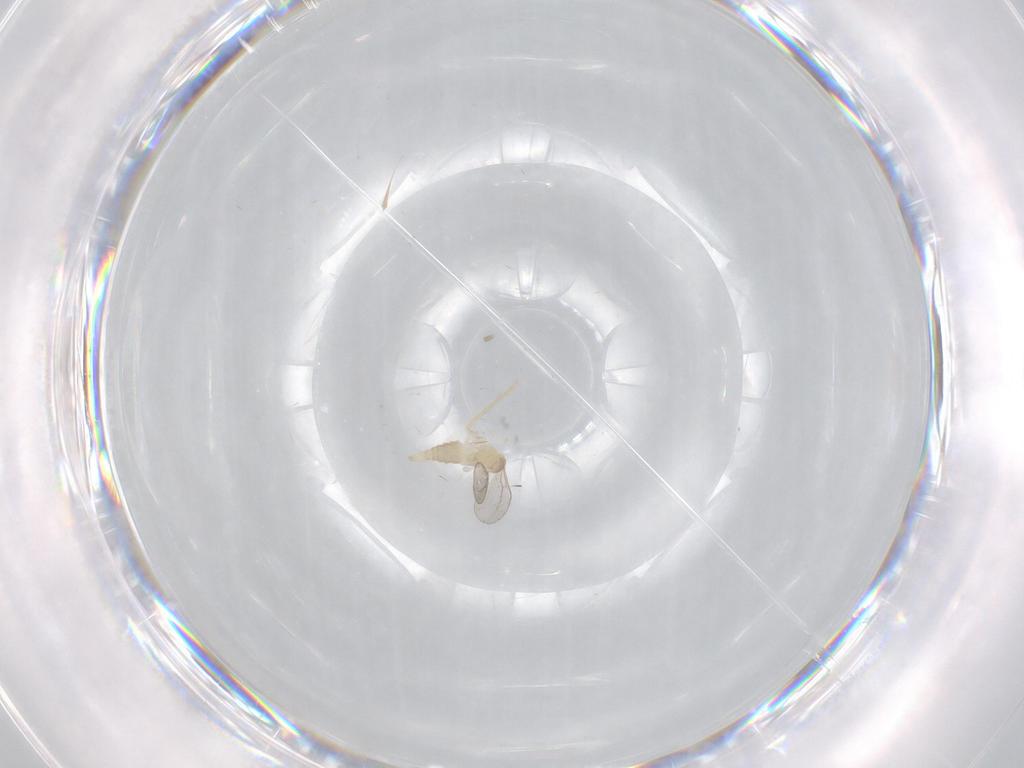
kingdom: Animalia
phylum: Arthropoda
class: Insecta
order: Diptera
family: Cecidomyiidae
